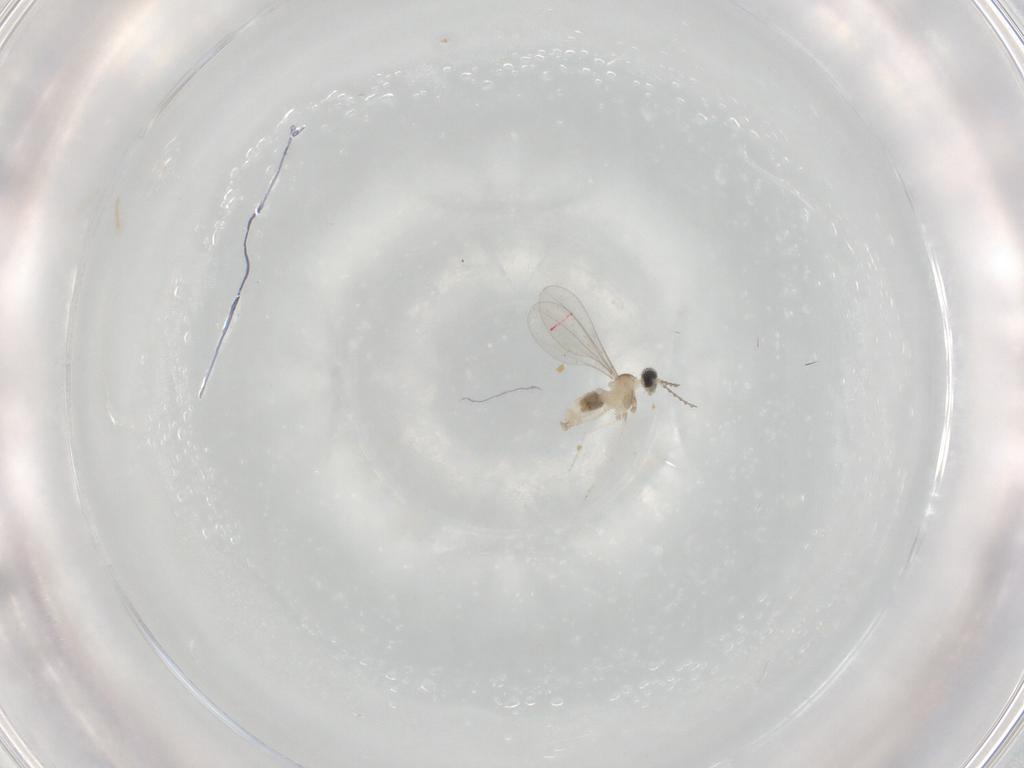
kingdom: Animalia
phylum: Arthropoda
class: Insecta
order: Diptera
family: Cecidomyiidae
